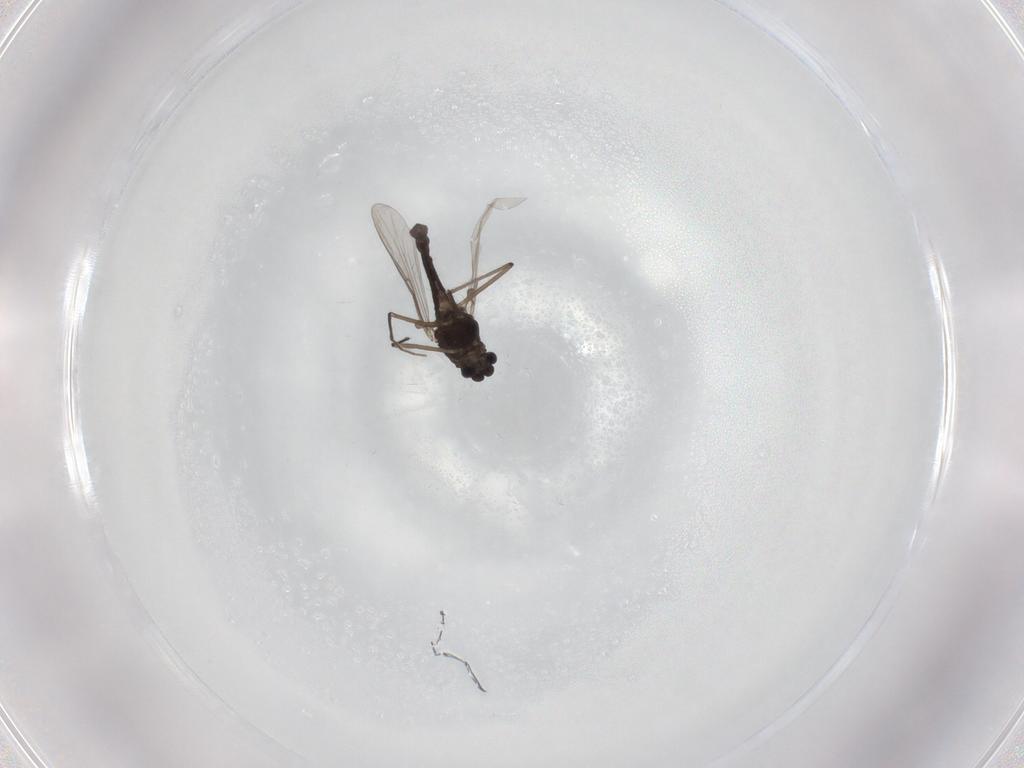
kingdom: Animalia
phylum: Arthropoda
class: Insecta
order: Diptera
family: Chironomidae
